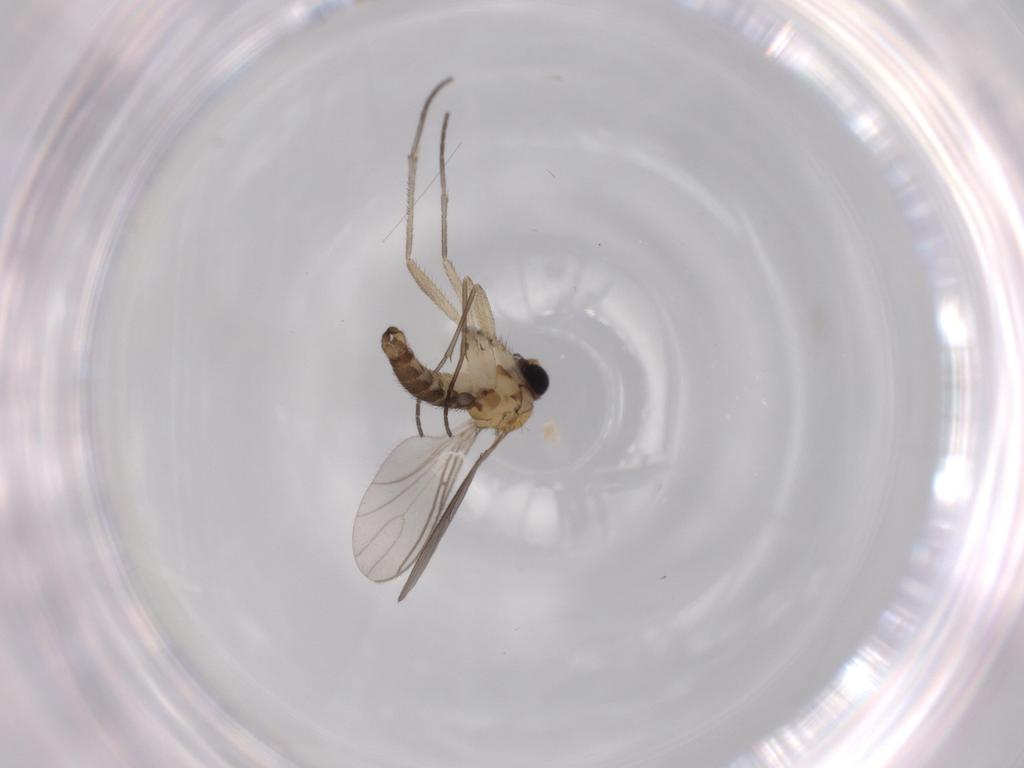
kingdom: Animalia
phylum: Arthropoda
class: Insecta
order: Diptera
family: Sciaridae
